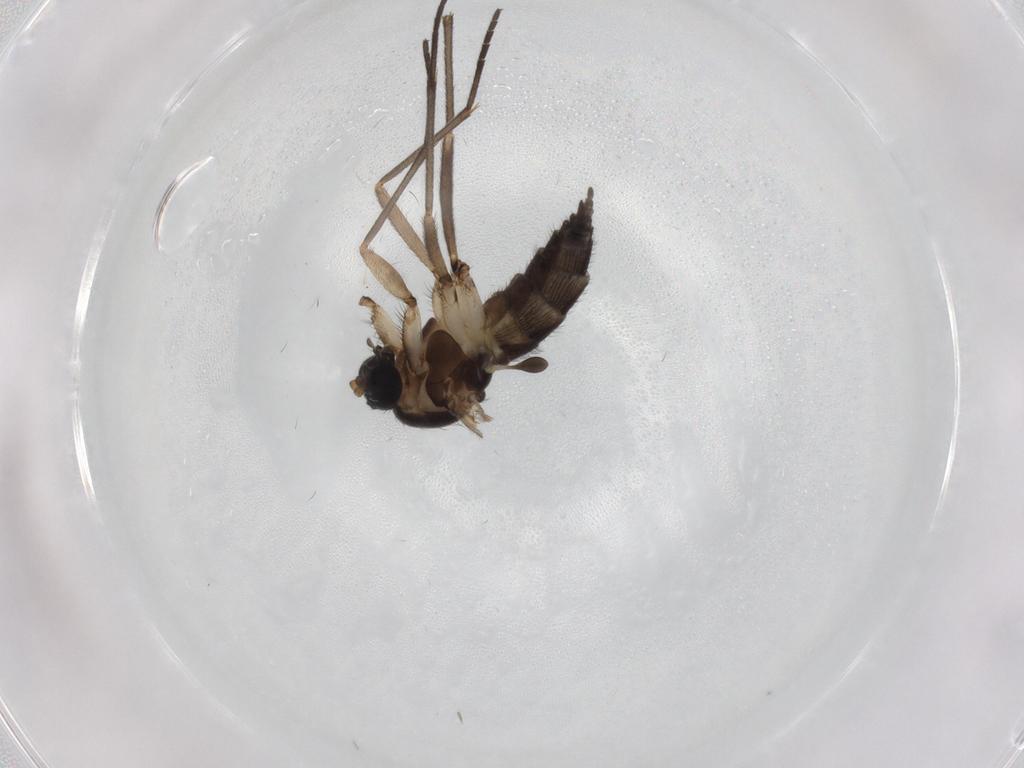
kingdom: Animalia
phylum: Arthropoda
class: Insecta
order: Diptera
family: Sciaridae
